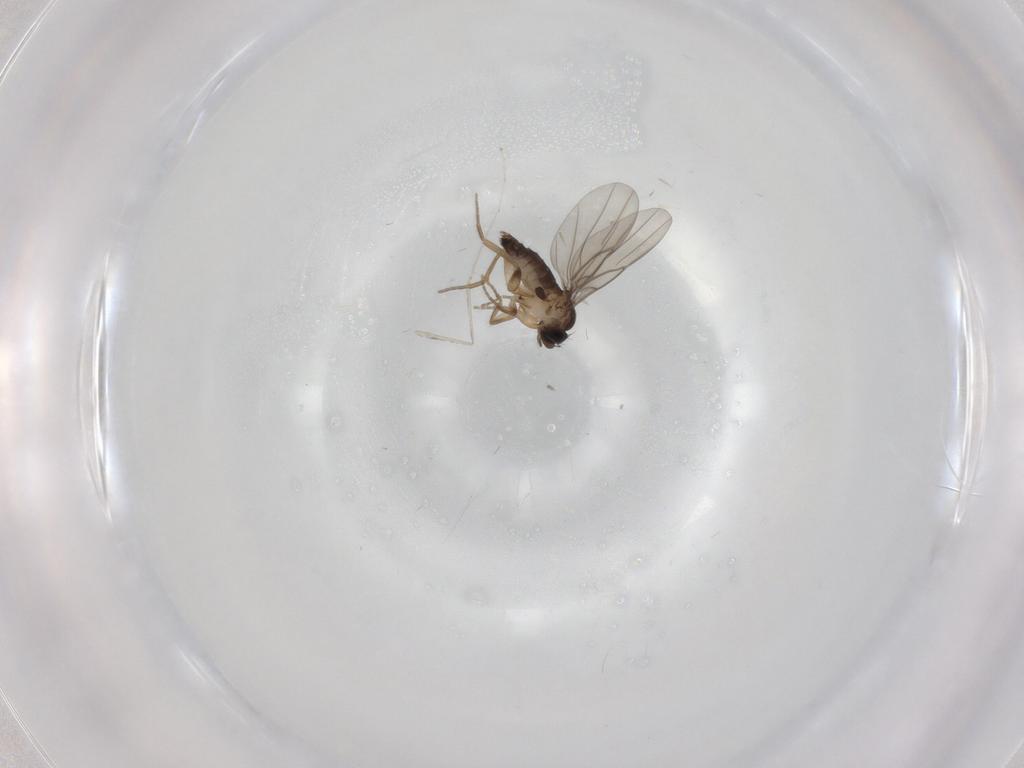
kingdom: Animalia
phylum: Arthropoda
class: Insecta
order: Diptera
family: Phoridae
